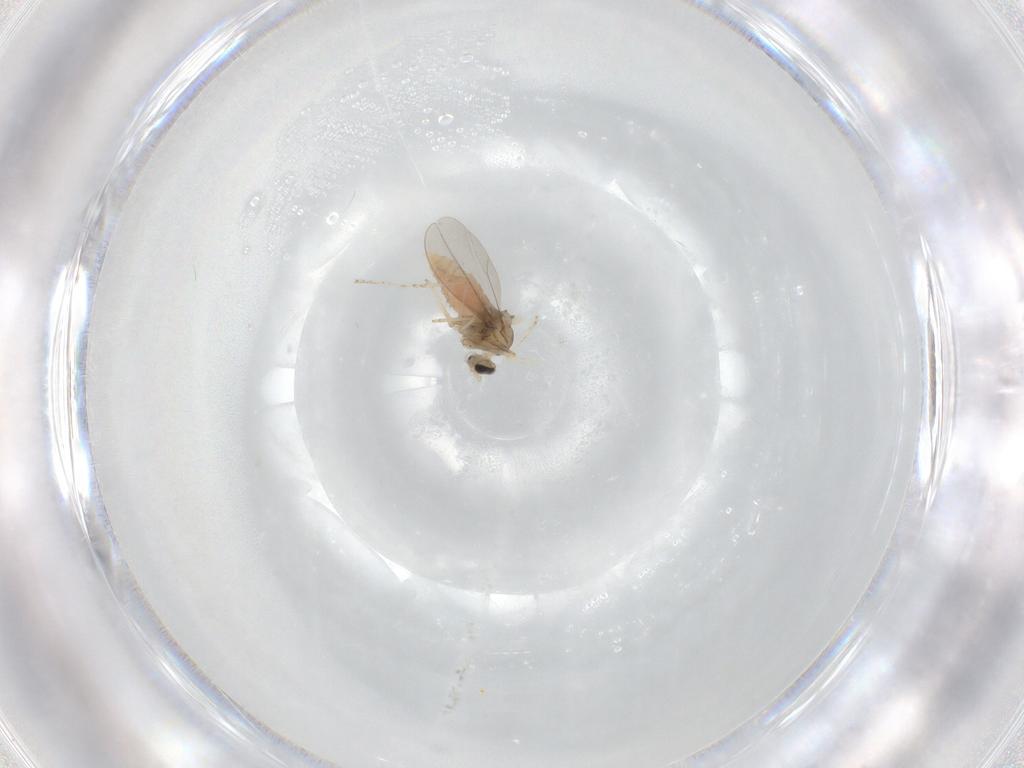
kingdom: Animalia
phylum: Arthropoda
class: Insecta
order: Diptera
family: Cecidomyiidae
